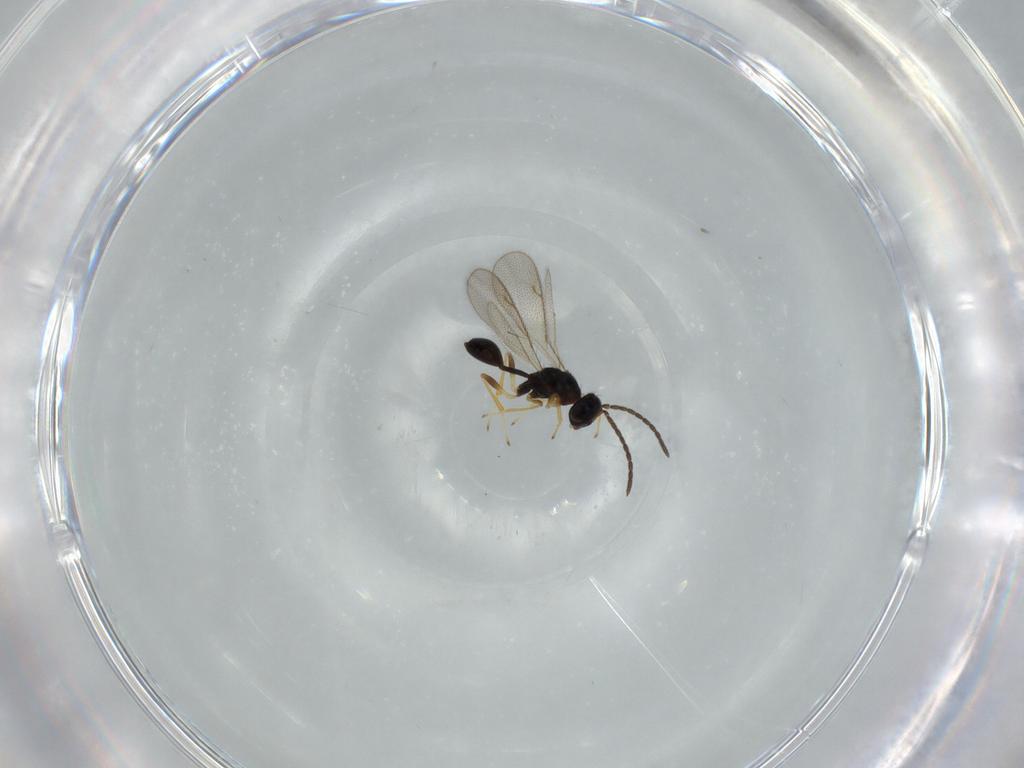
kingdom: Animalia
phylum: Arthropoda
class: Insecta
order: Hymenoptera
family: Diparidae
